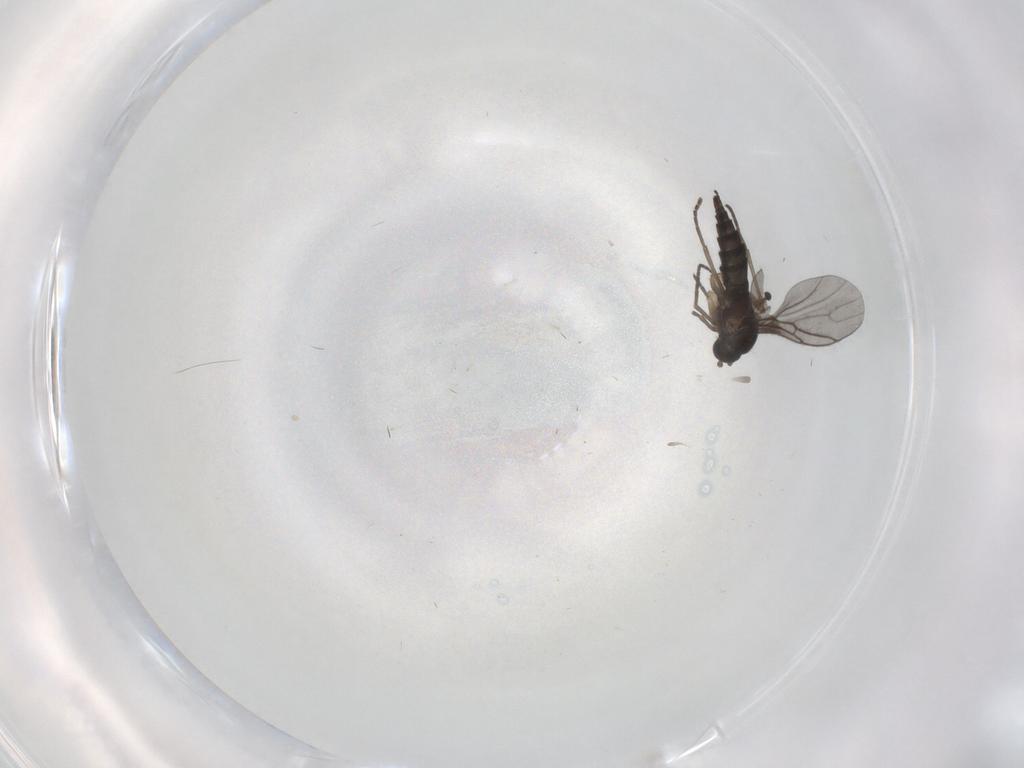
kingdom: Animalia
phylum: Arthropoda
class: Insecta
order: Diptera
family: Cecidomyiidae
